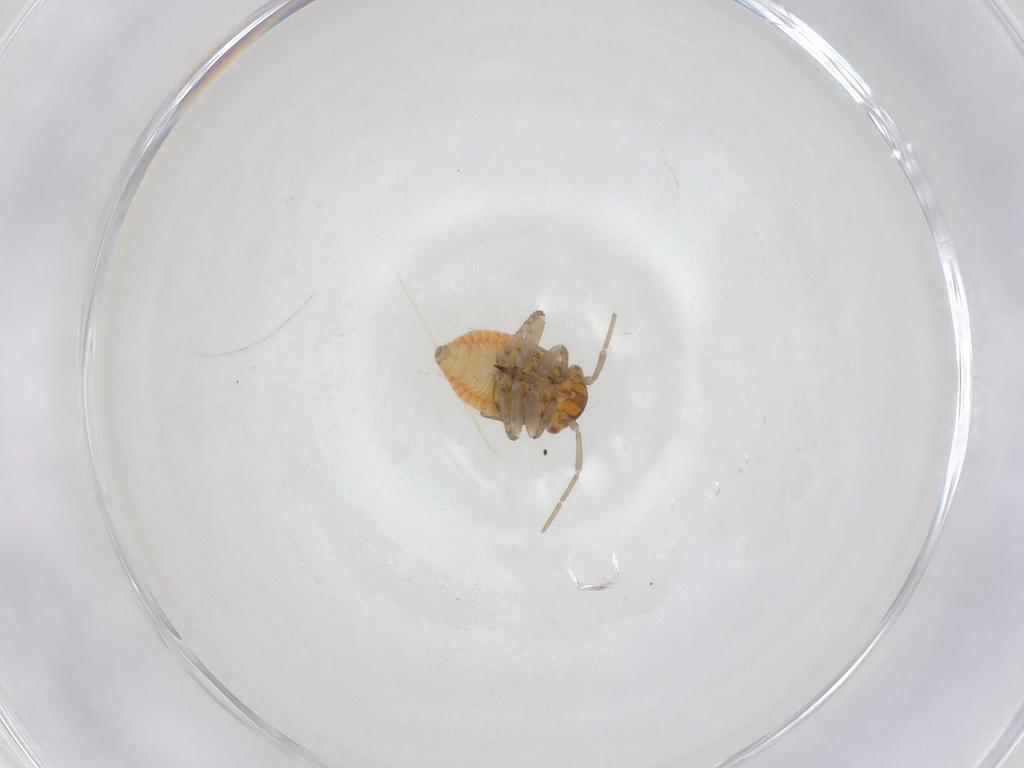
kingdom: Animalia
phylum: Arthropoda
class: Insecta
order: Hemiptera
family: Miridae
